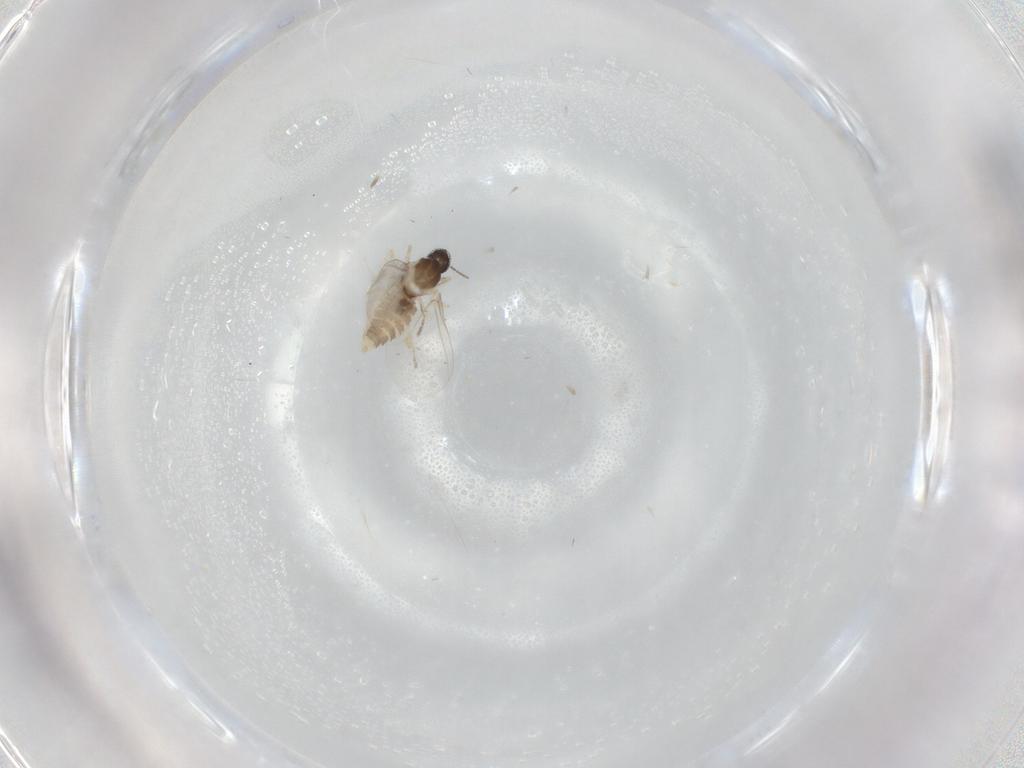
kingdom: Animalia
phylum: Arthropoda
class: Insecta
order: Diptera
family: Cecidomyiidae
